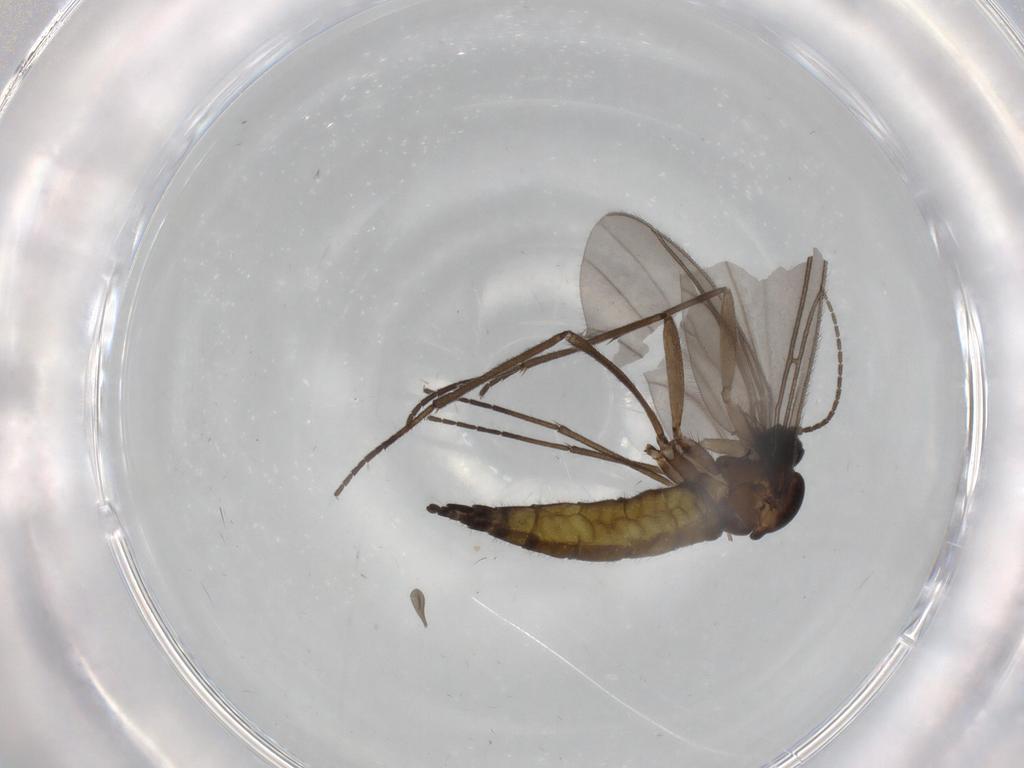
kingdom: Animalia
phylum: Arthropoda
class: Insecta
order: Diptera
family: Sciaridae
